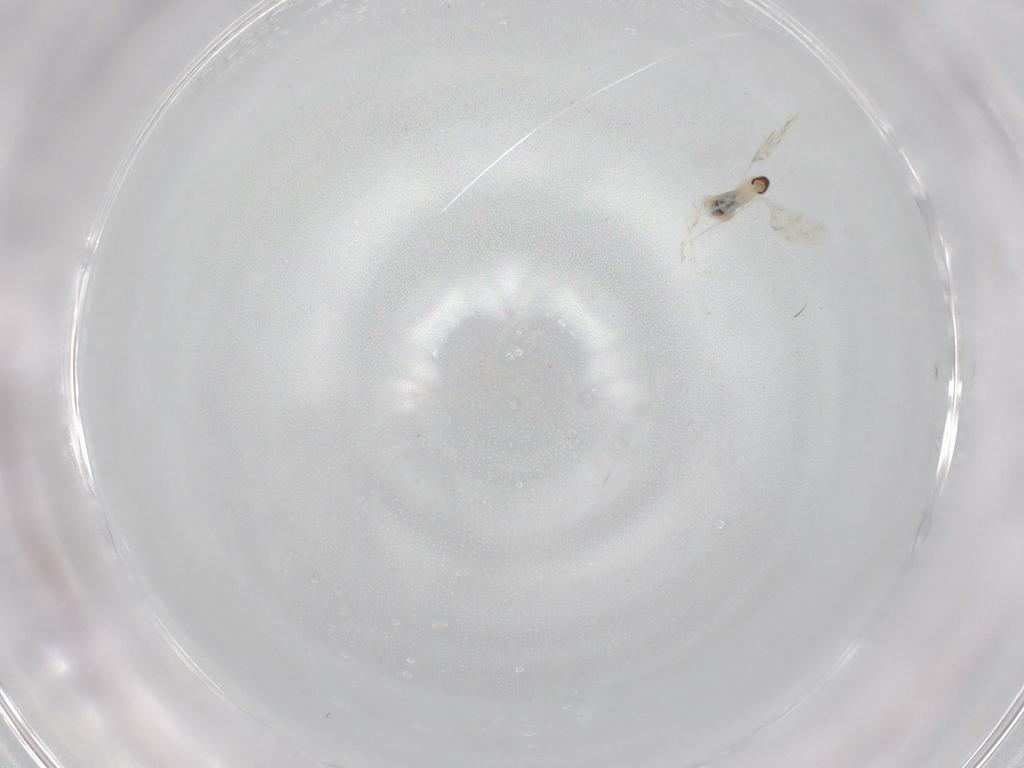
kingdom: Animalia
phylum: Arthropoda
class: Insecta
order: Diptera
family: Cecidomyiidae
